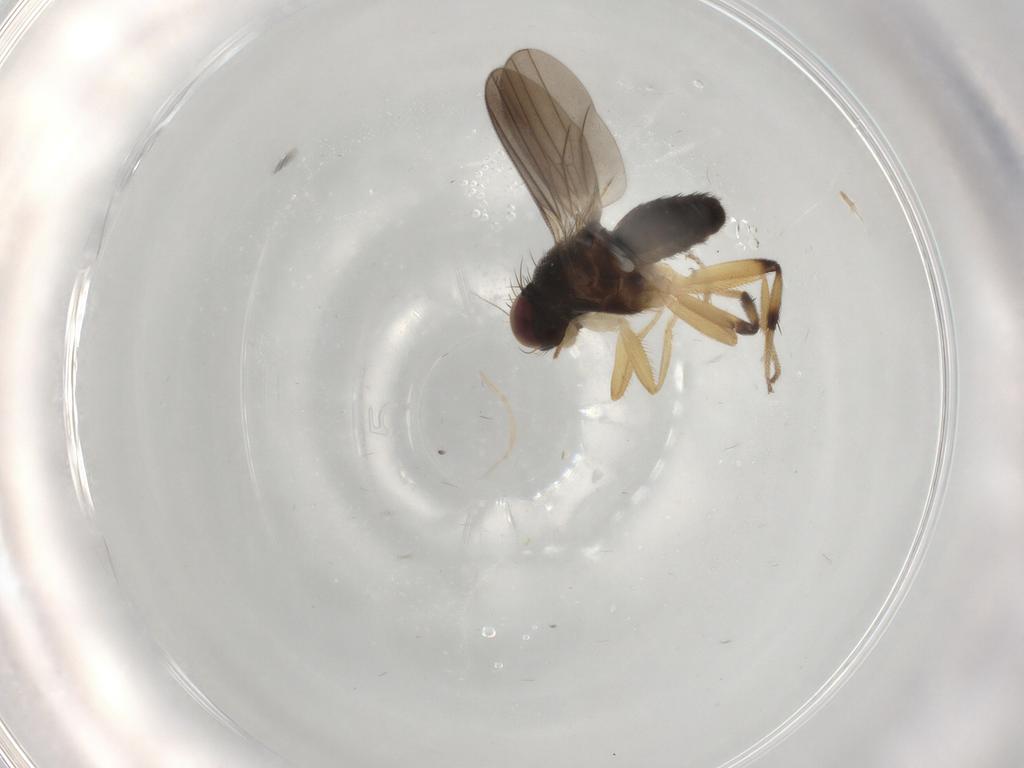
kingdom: Animalia
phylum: Arthropoda
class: Insecta
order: Diptera
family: Clusiidae
